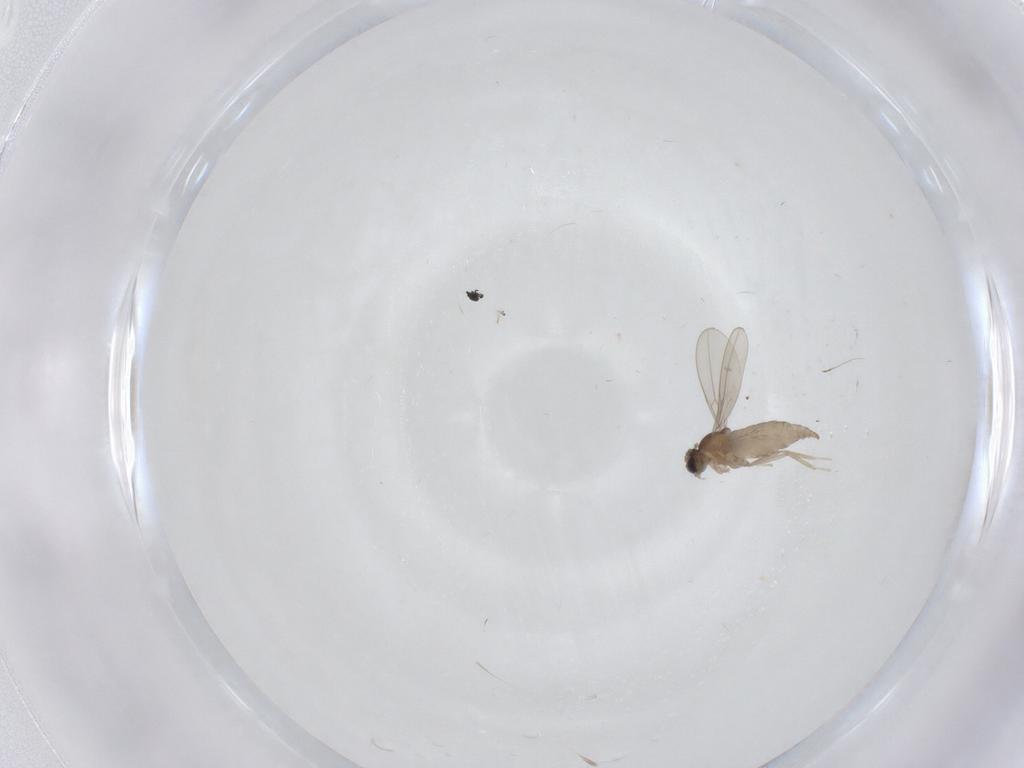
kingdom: Animalia
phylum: Arthropoda
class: Insecta
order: Diptera
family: Cecidomyiidae
